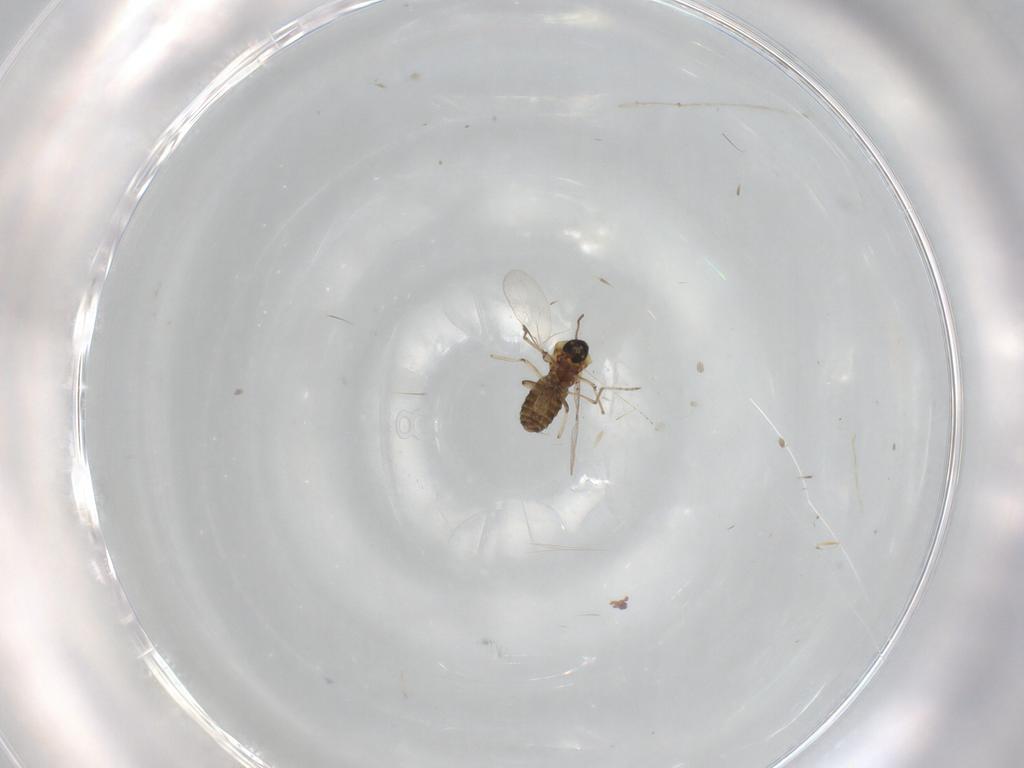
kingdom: Animalia
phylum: Arthropoda
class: Insecta
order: Diptera
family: Ceratopogonidae
